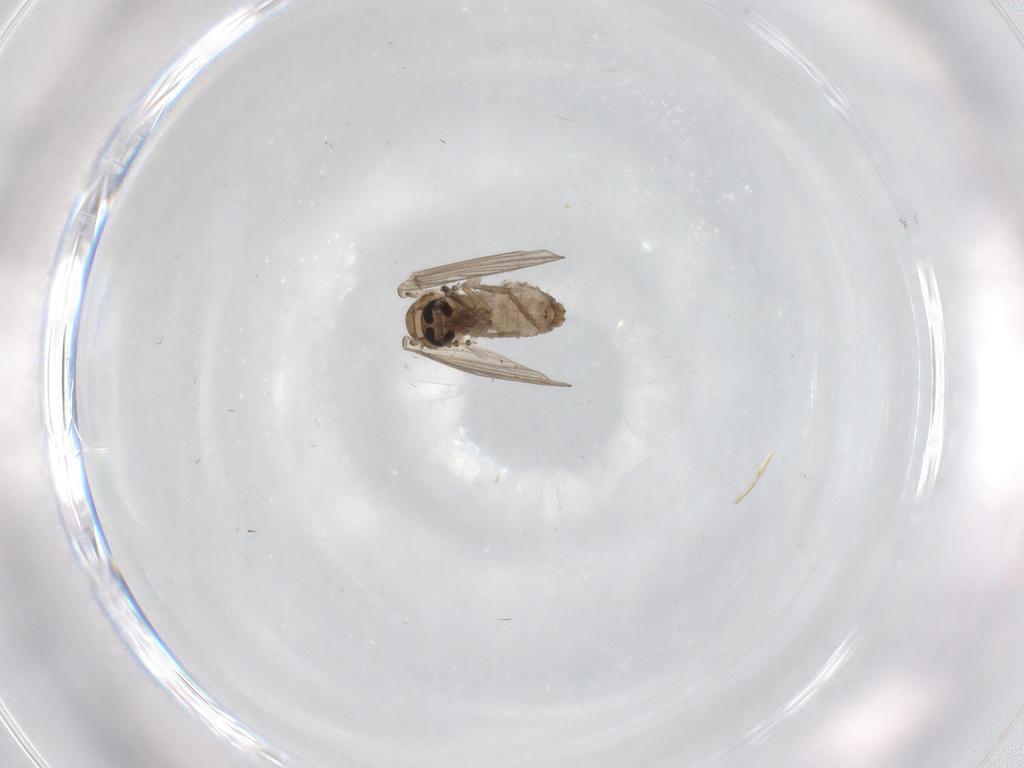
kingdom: Animalia
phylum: Arthropoda
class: Insecta
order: Diptera
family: Psychodidae
